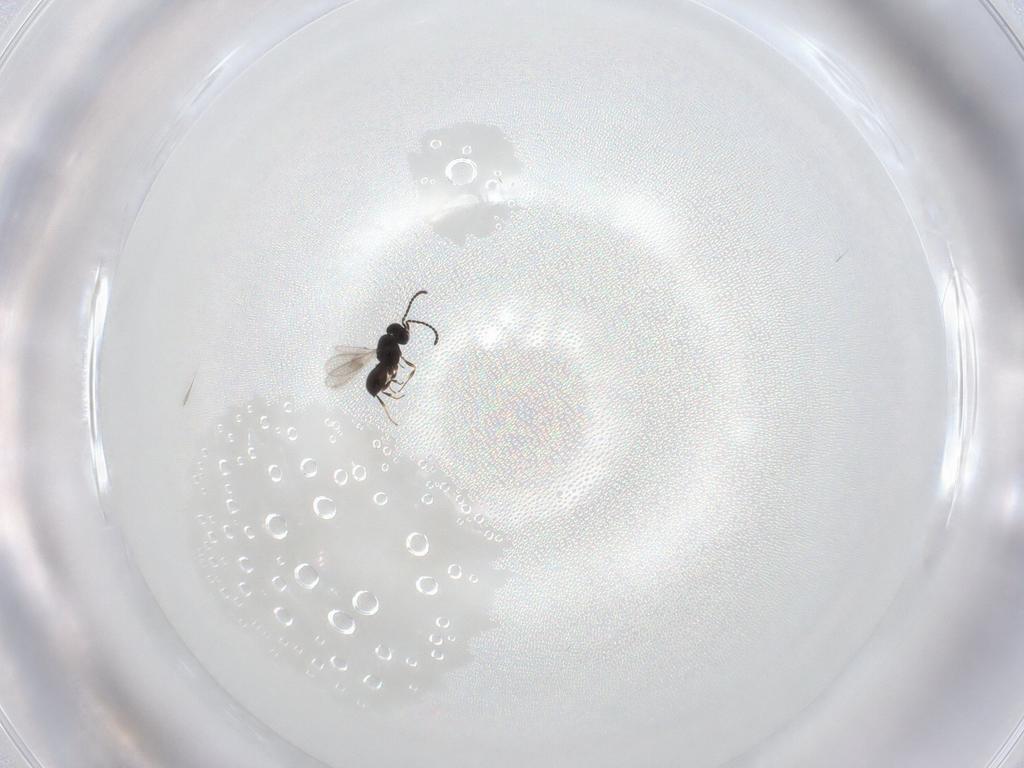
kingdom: Animalia
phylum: Arthropoda
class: Insecta
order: Hymenoptera
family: Scelionidae
